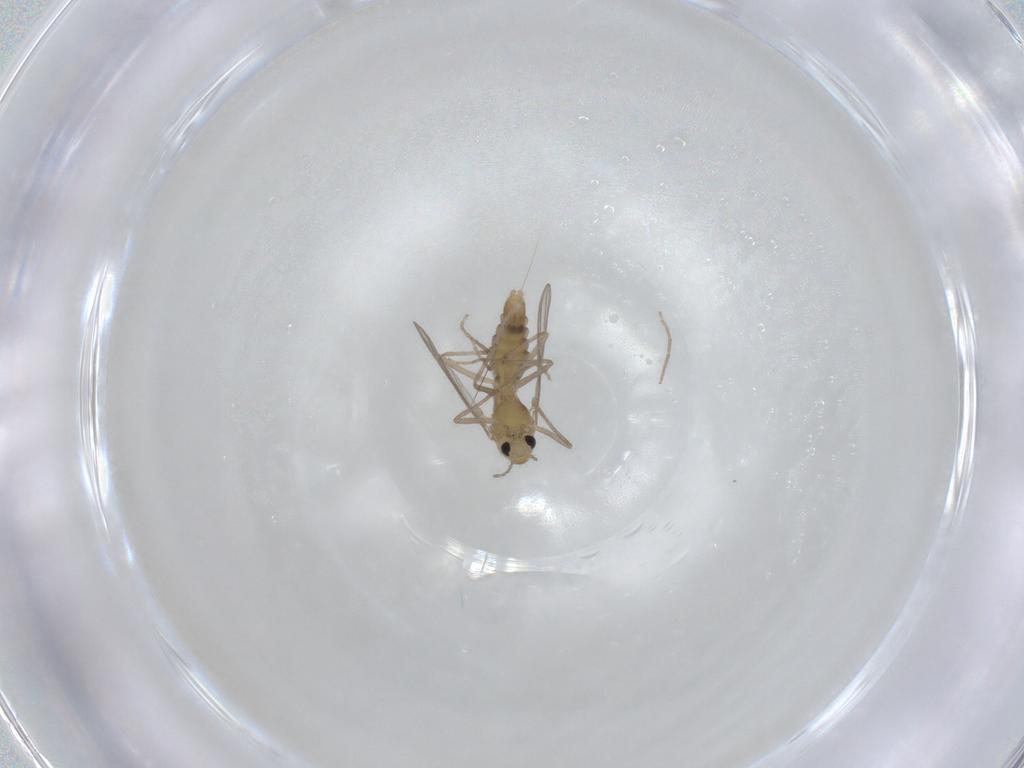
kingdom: Animalia
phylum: Arthropoda
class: Insecta
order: Diptera
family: Chironomidae
